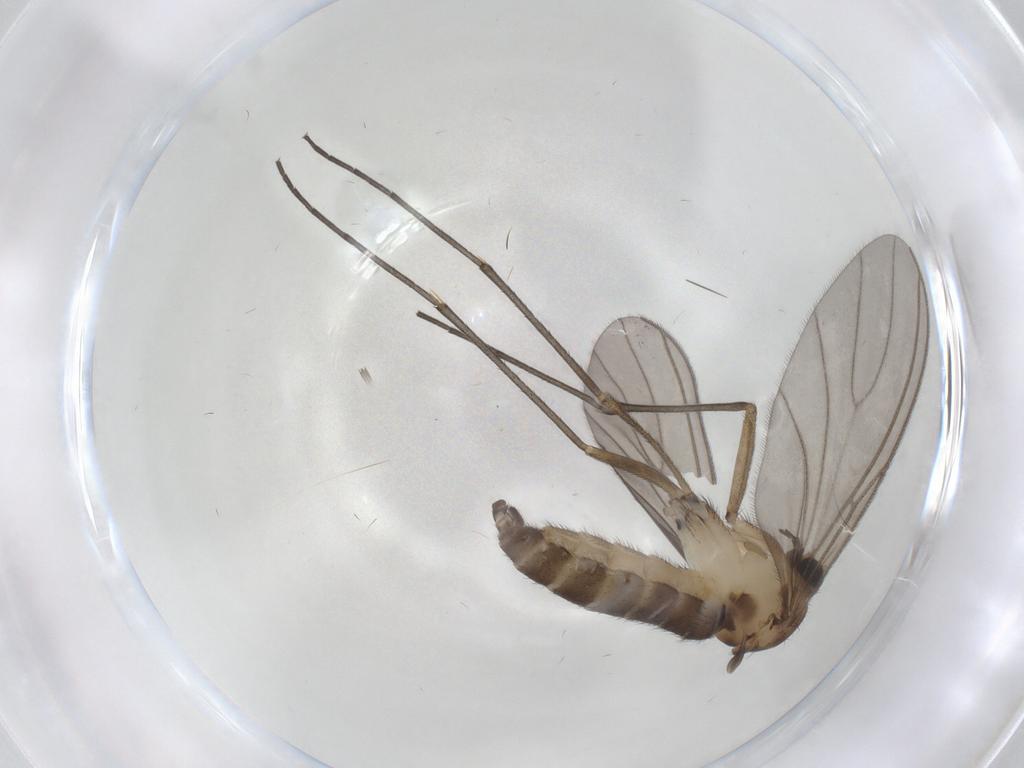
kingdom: Animalia
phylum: Arthropoda
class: Insecta
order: Diptera
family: Sciaridae
